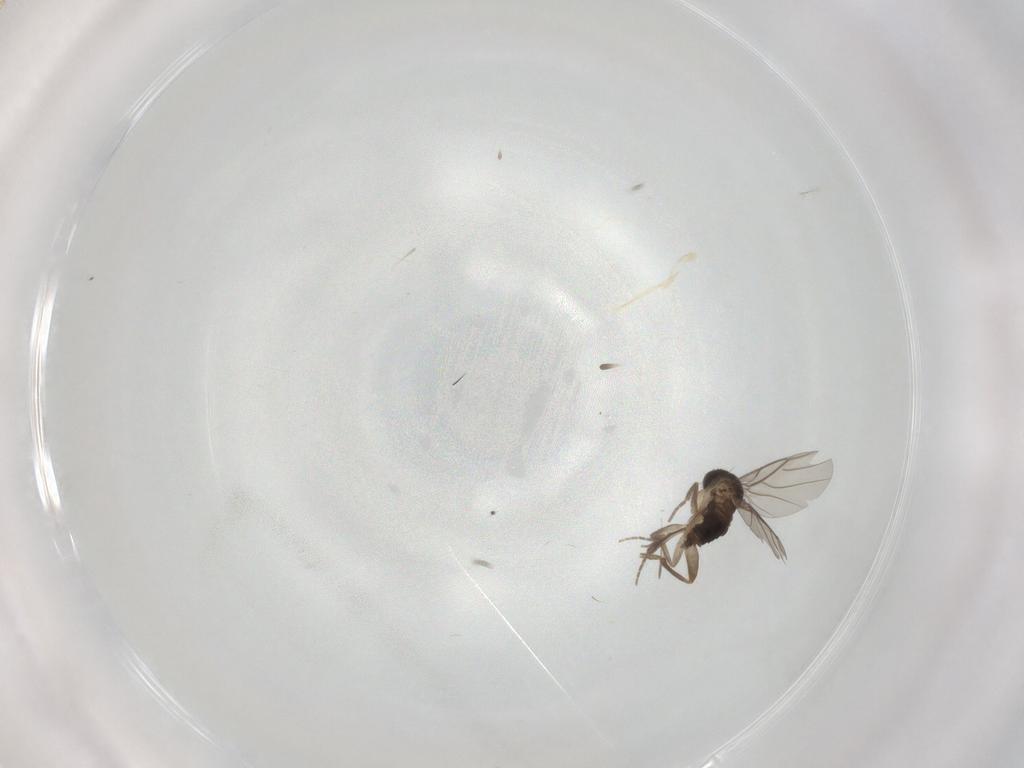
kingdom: Animalia
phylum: Arthropoda
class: Insecta
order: Diptera
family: Phoridae
